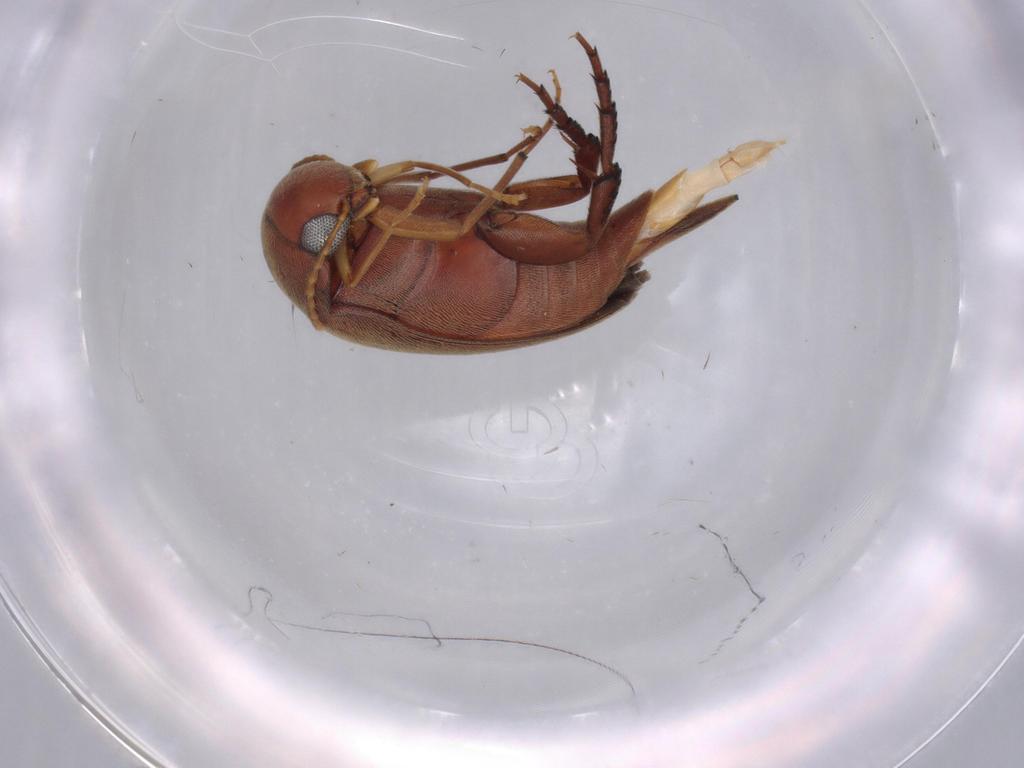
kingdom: Animalia
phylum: Arthropoda
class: Insecta
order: Coleoptera
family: Mordellidae
